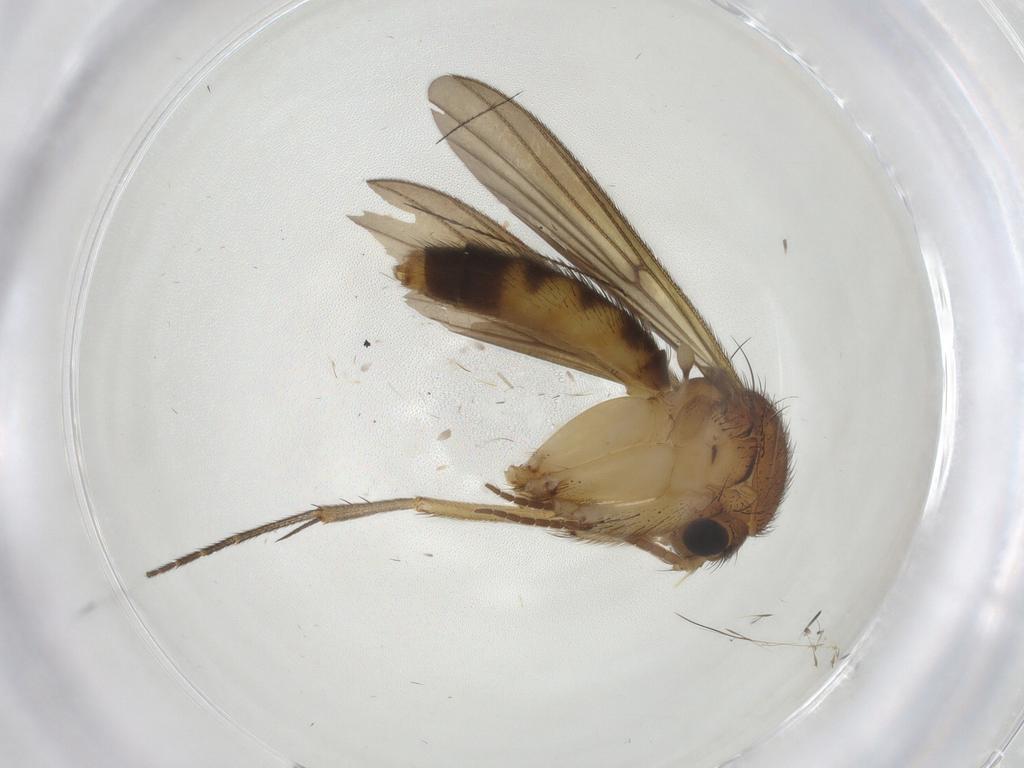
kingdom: Animalia
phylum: Arthropoda
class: Insecta
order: Diptera
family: Mycetophilidae
